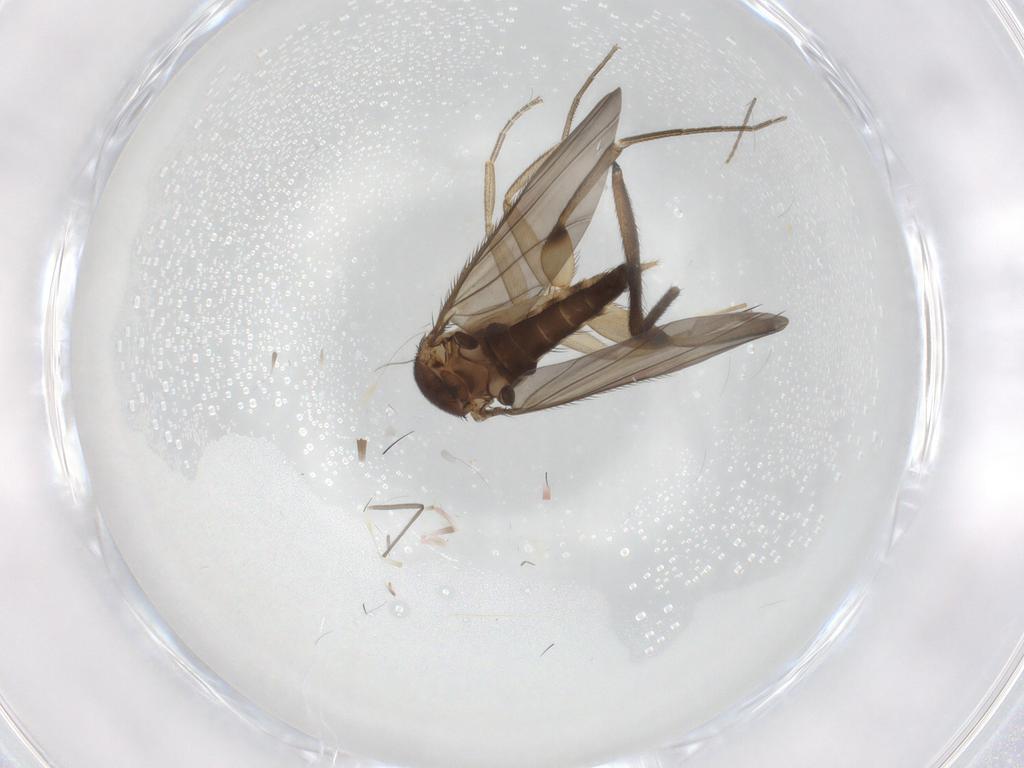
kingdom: Animalia
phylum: Arthropoda
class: Insecta
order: Diptera
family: Phoridae
